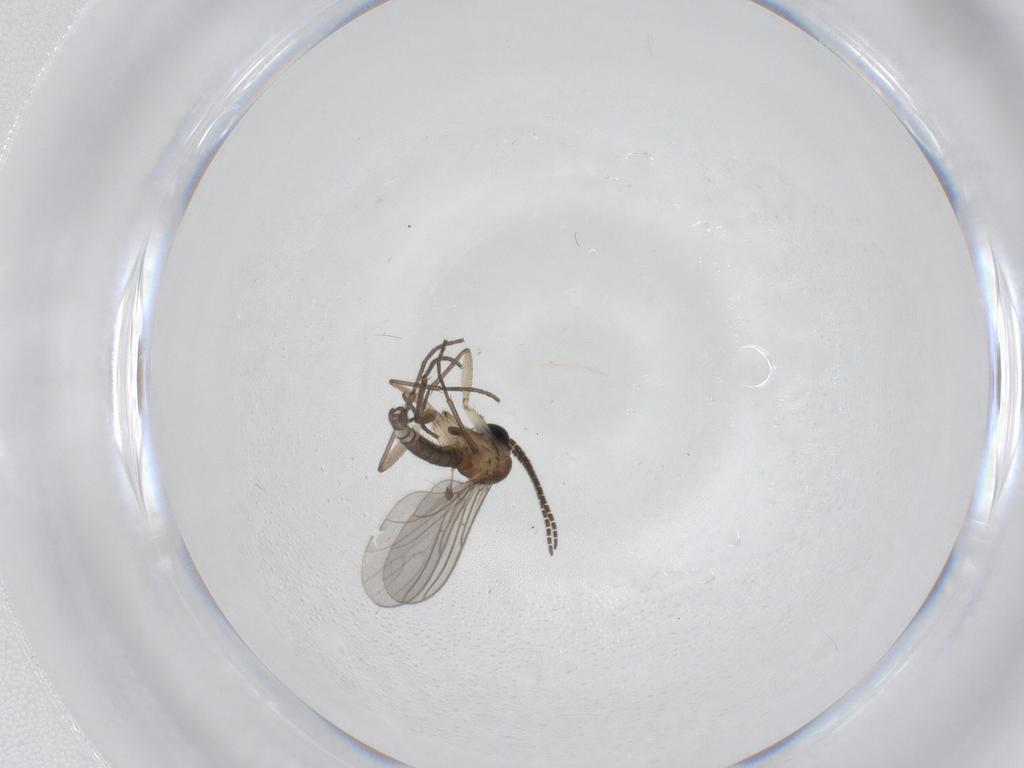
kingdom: Animalia
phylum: Arthropoda
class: Insecta
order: Diptera
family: Sciaridae
